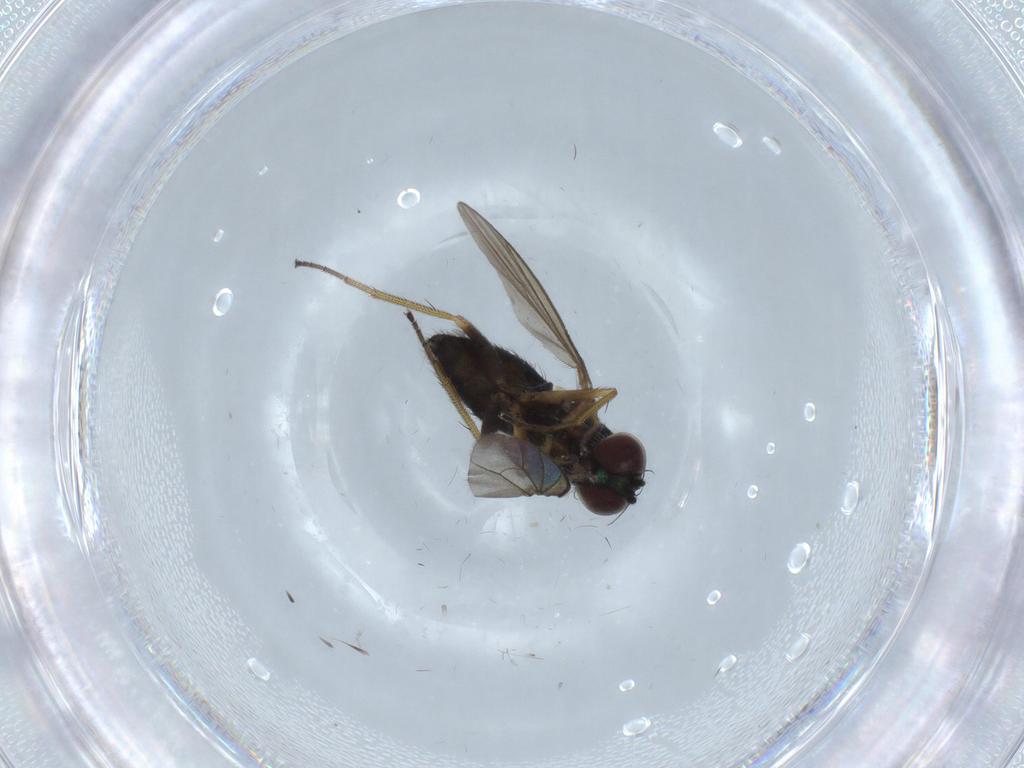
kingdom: Animalia
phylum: Arthropoda
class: Insecta
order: Diptera
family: Dolichopodidae
